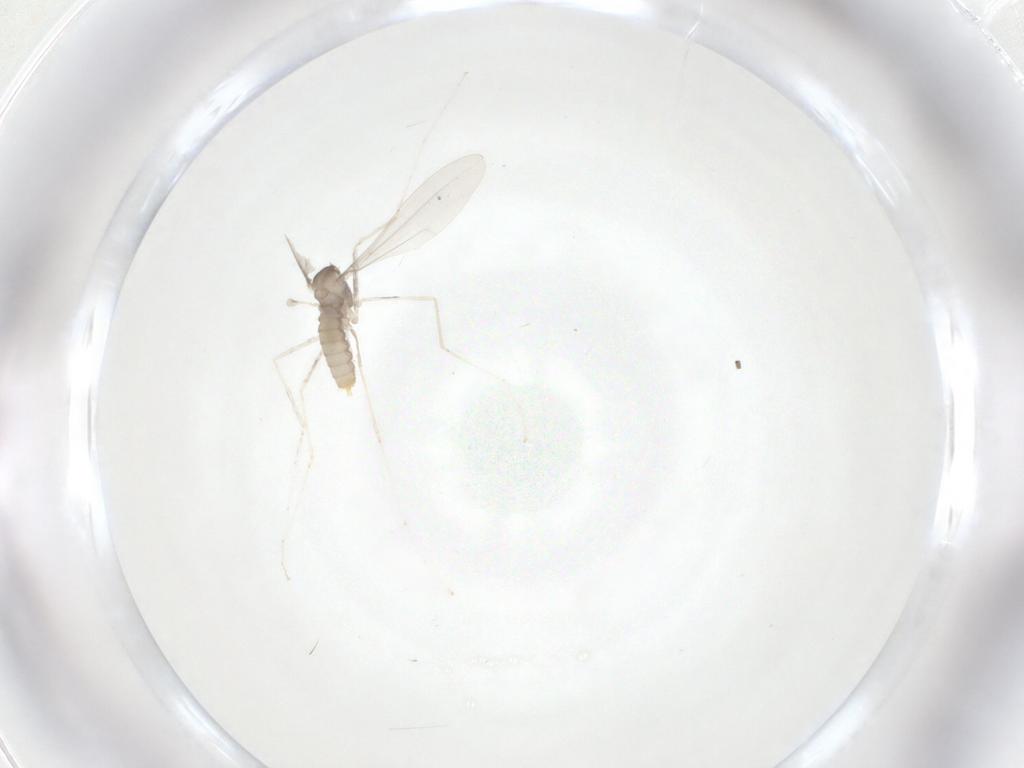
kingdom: Animalia
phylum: Arthropoda
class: Insecta
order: Diptera
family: Cecidomyiidae
